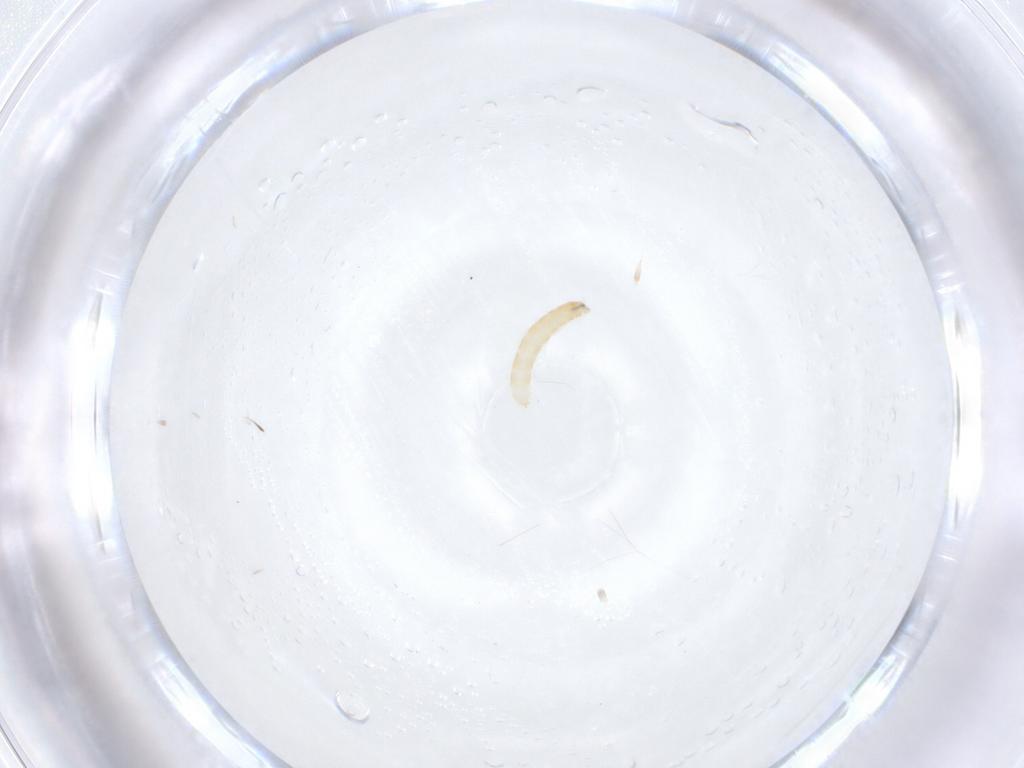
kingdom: Animalia
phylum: Arthropoda
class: Insecta
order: Diptera
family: Tachinidae
